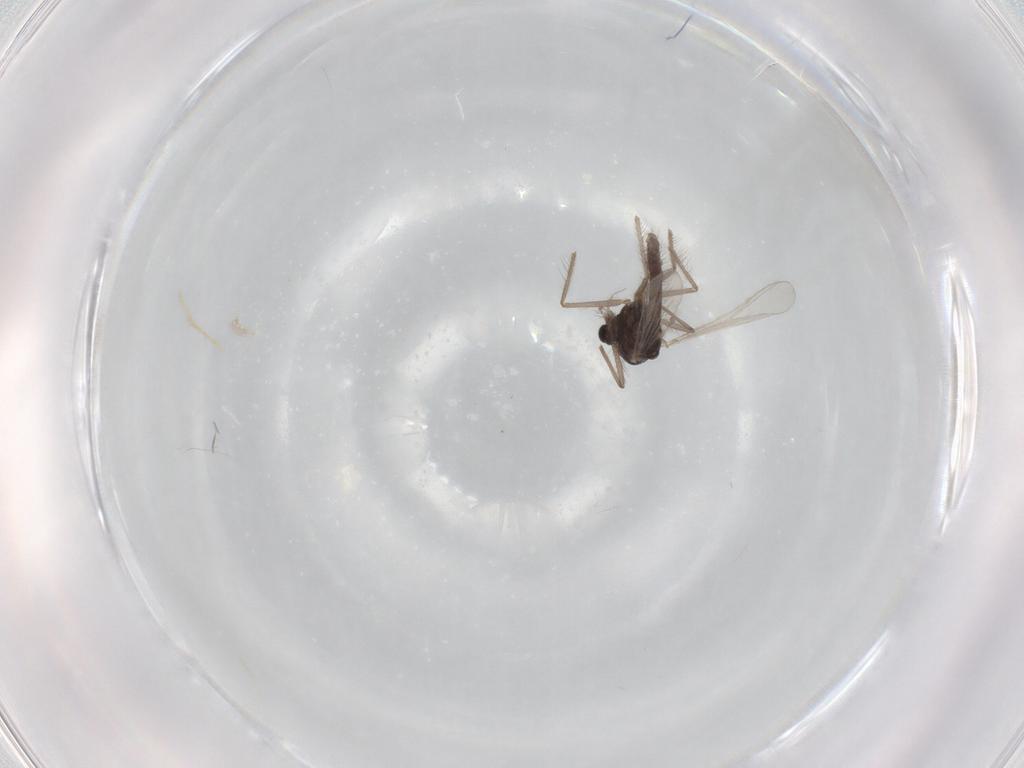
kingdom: Animalia
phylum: Arthropoda
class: Insecta
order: Diptera
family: Chironomidae
